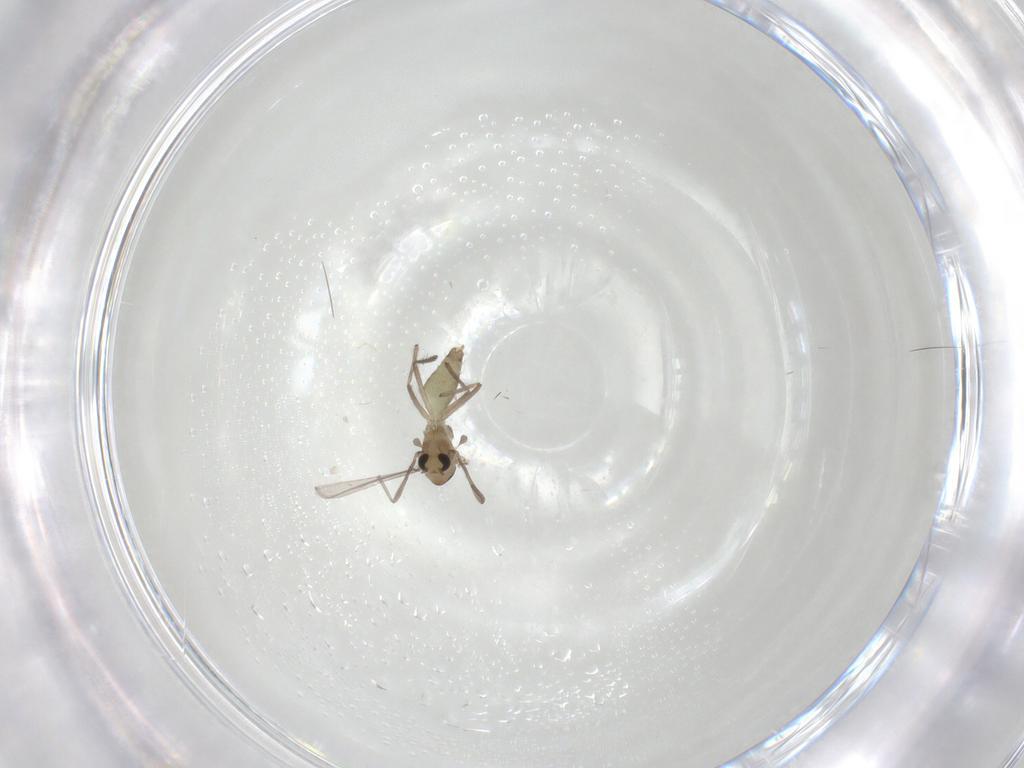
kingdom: Animalia
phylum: Arthropoda
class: Insecta
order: Diptera
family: Chironomidae
